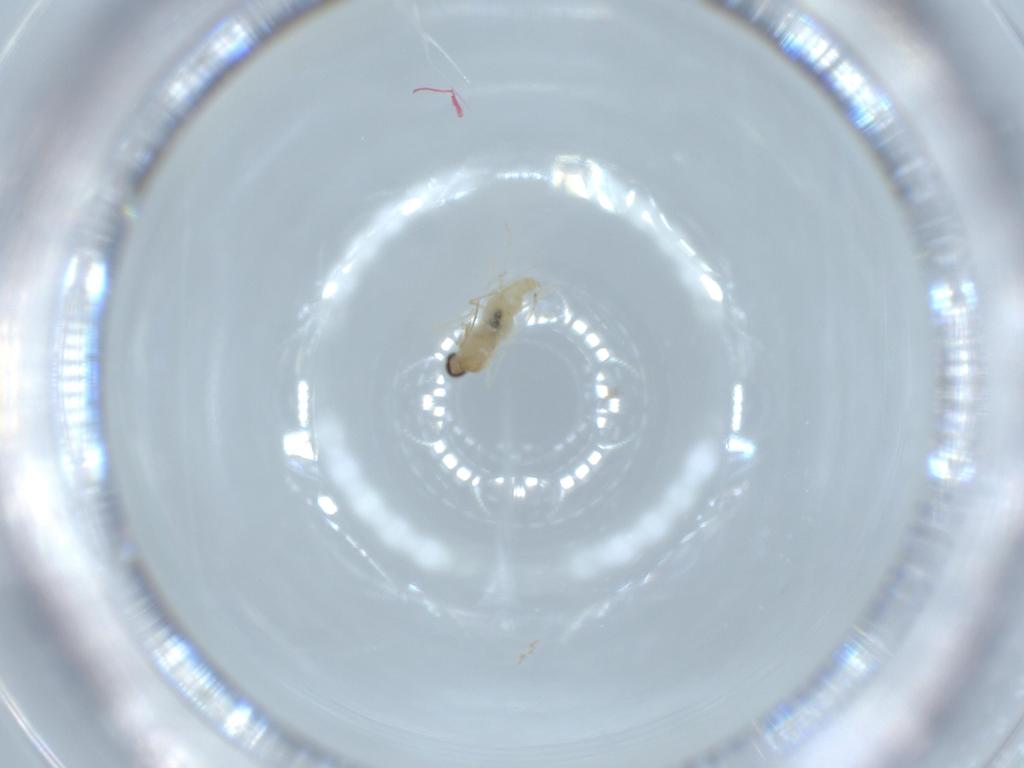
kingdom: Animalia
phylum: Arthropoda
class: Insecta
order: Diptera
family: Cecidomyiidae
